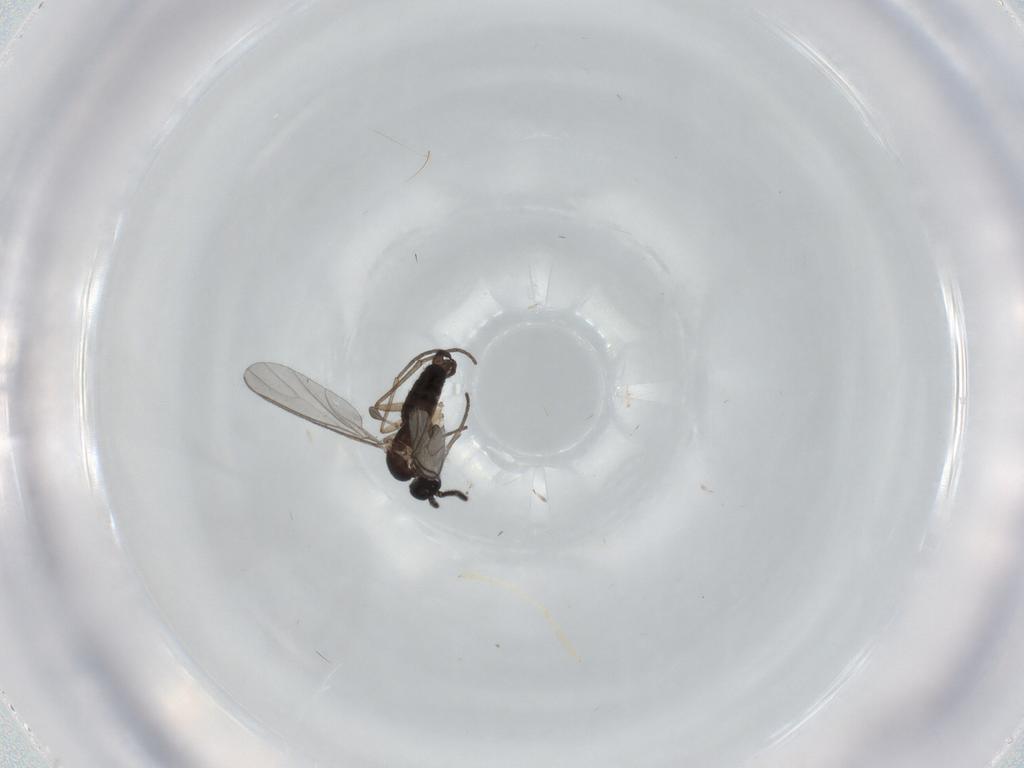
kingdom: Animalia
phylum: Arthropoda
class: Insecta
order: Diptera
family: Sciaridae
